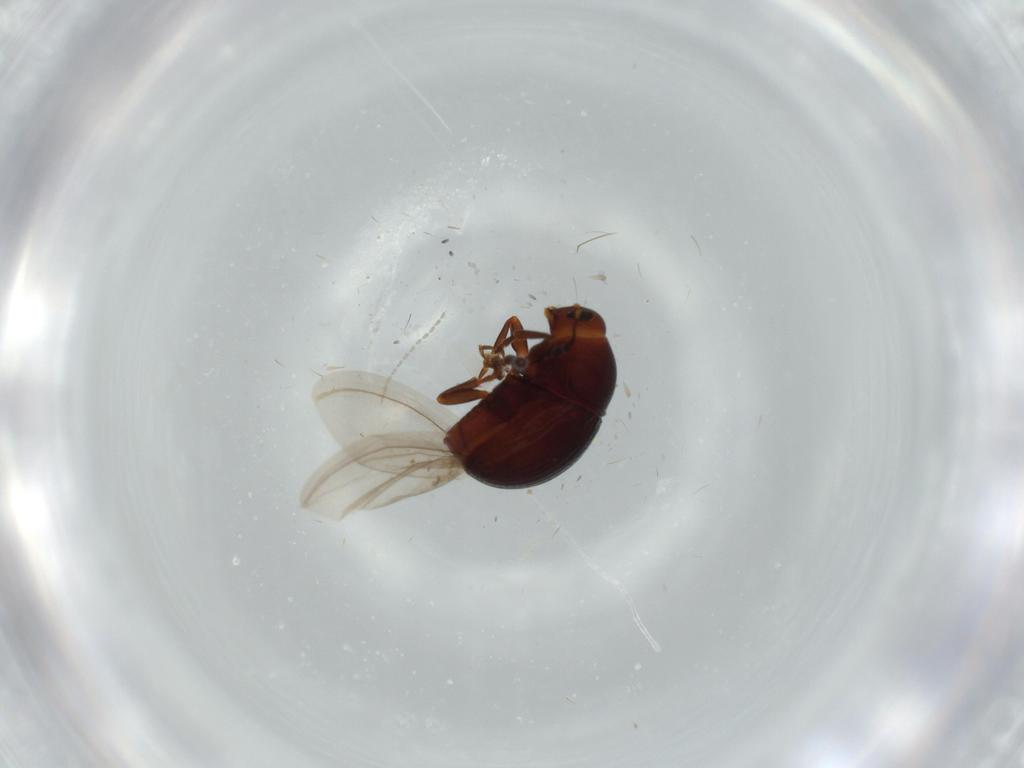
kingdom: Animalia
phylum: Arthropoda
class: Insecta
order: Coleoptera
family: Anthribidae
